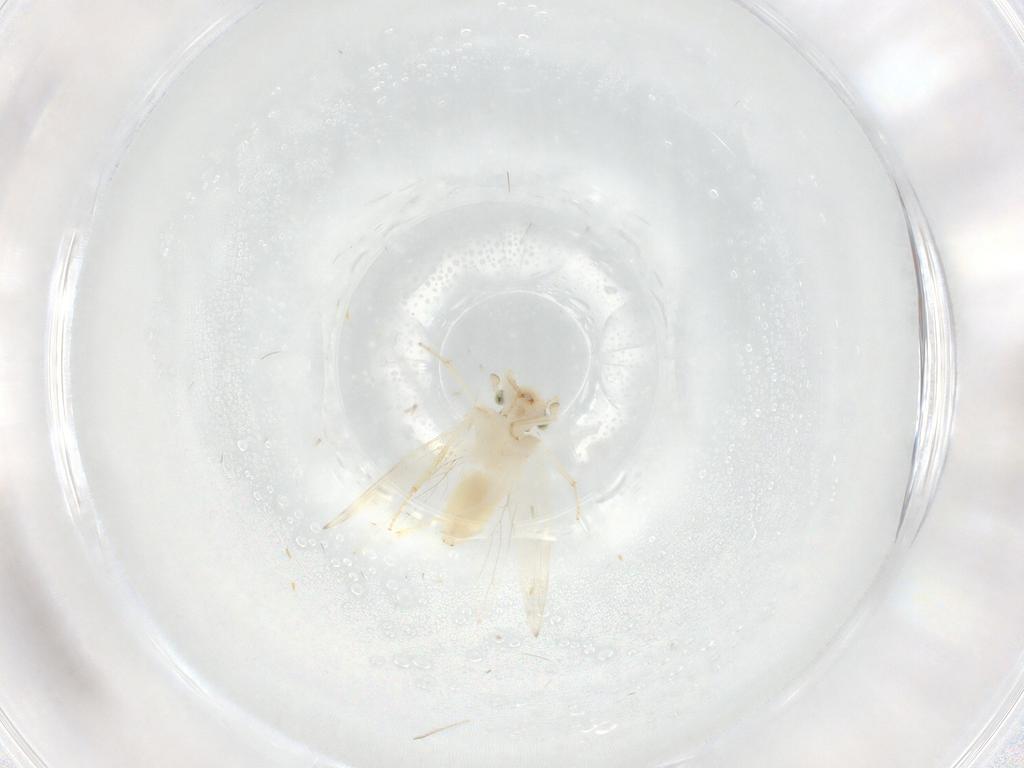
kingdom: Animalia
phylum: Arthropoda
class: Insecta
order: Psocodea
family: Lepidopsocidae
